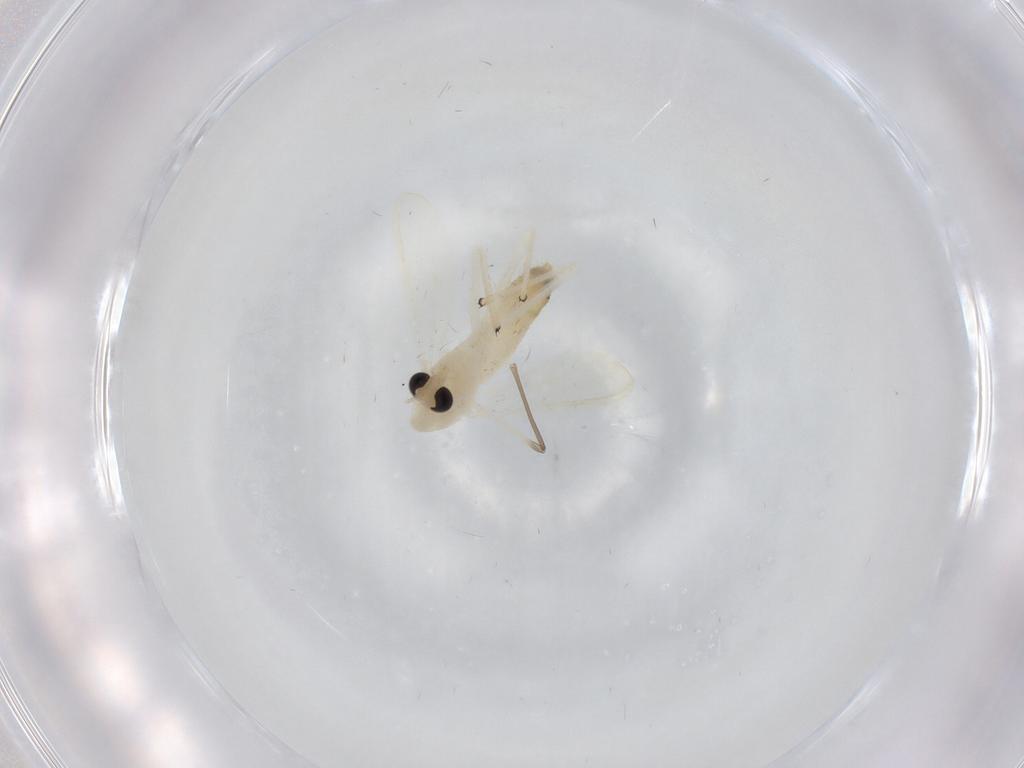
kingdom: Animalia
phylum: Arthropoda
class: Insecta
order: Diptera
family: Chironomidae
